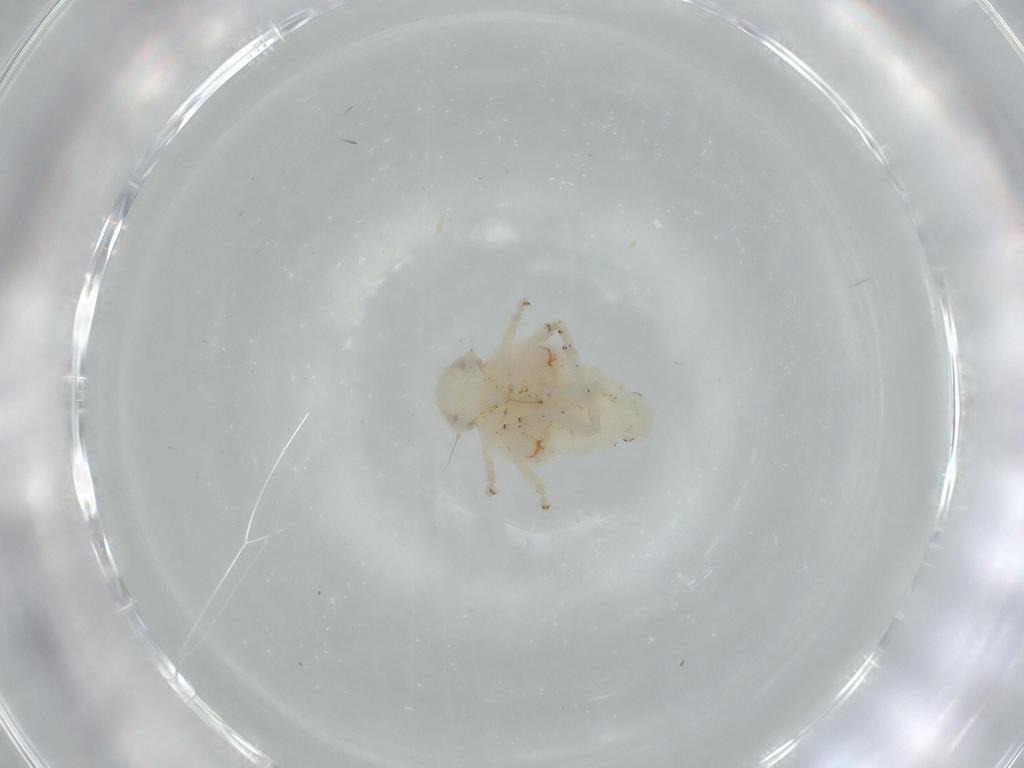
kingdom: Animalia
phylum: Arthropoda
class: Insecta
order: Hemiptera
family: Nogodinidae
